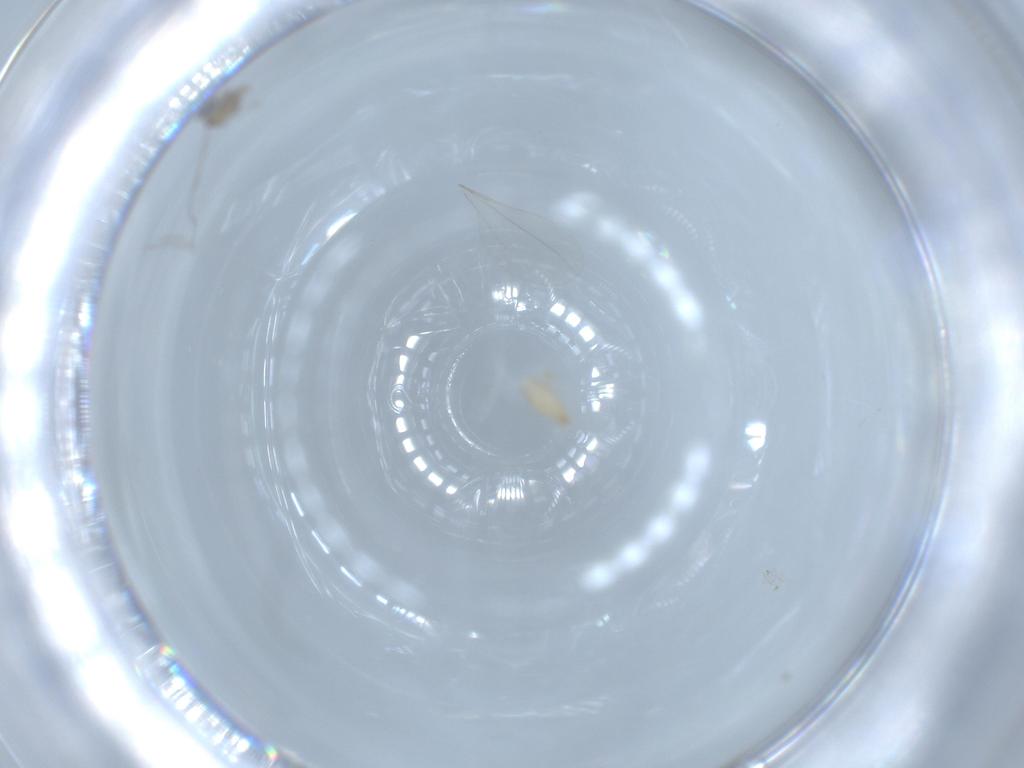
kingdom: Animalia
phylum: Arthropoda
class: Insecta
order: Diptera
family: Cecidomyiidae
